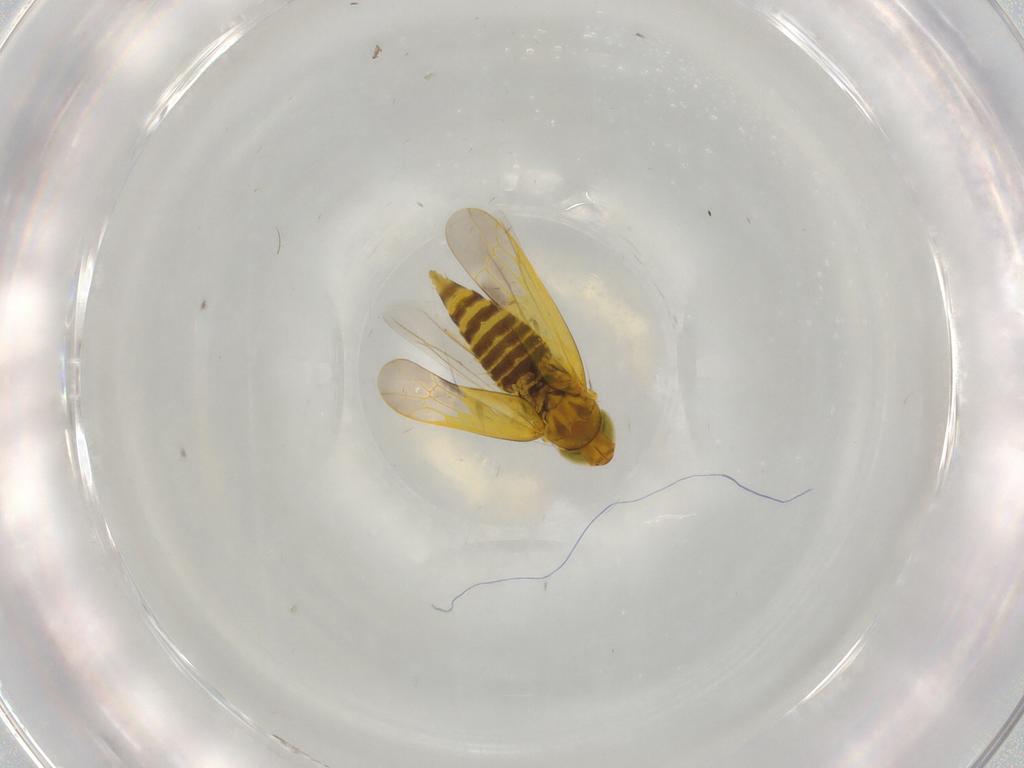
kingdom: Animalia
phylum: Arthropoda
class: Insecta
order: Hemiptera
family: Cicadellidae
